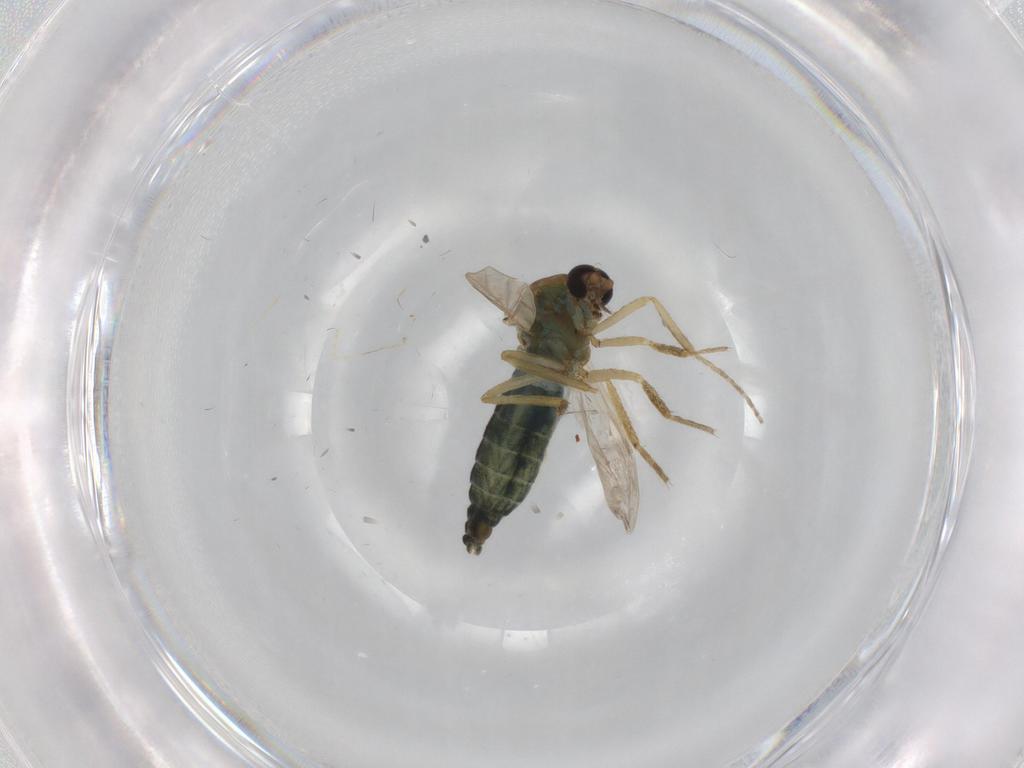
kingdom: Animalia
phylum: Arthropoda
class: Insecta
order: Diptera
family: Ceratopogonidae
